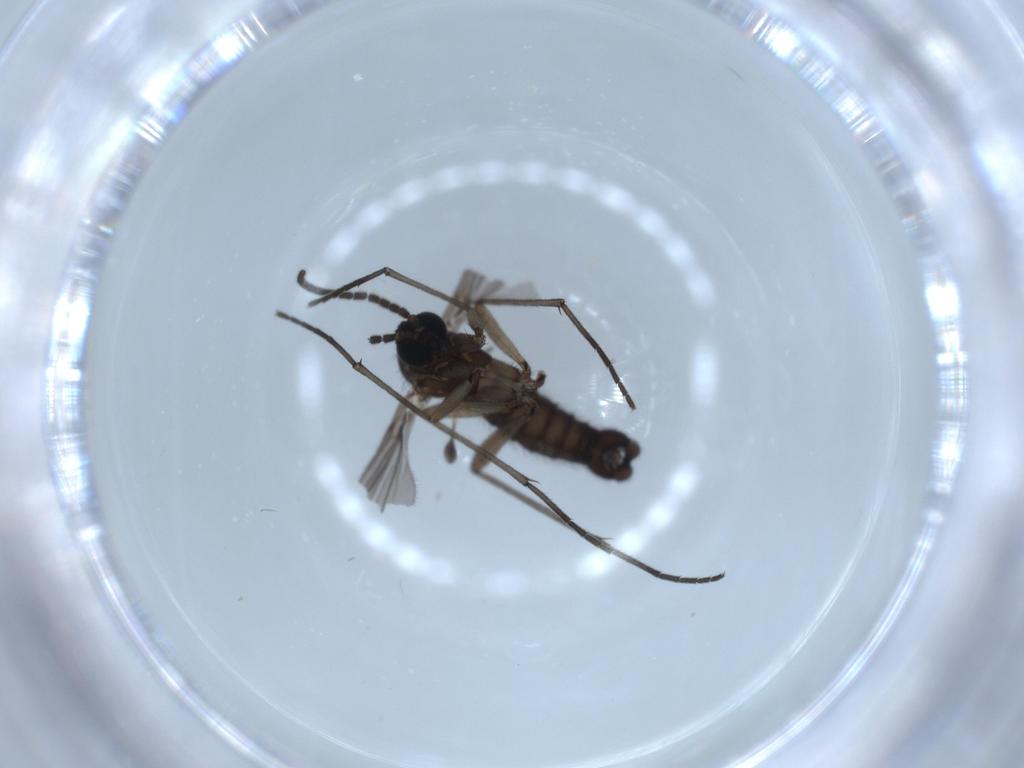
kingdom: Animalia
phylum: Arthropoda
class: Insecta
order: Diptera
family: Sciaridae
